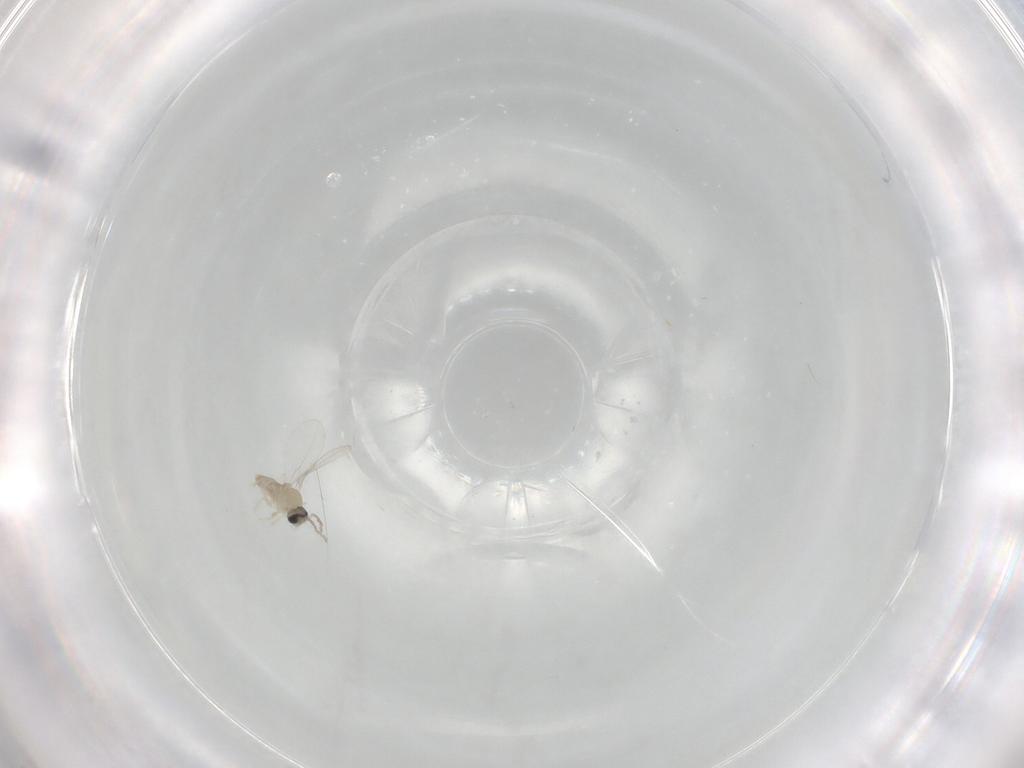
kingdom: Animalia
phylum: Arthropoda
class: Insecta
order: Diptera
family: Cecidomyiidae
